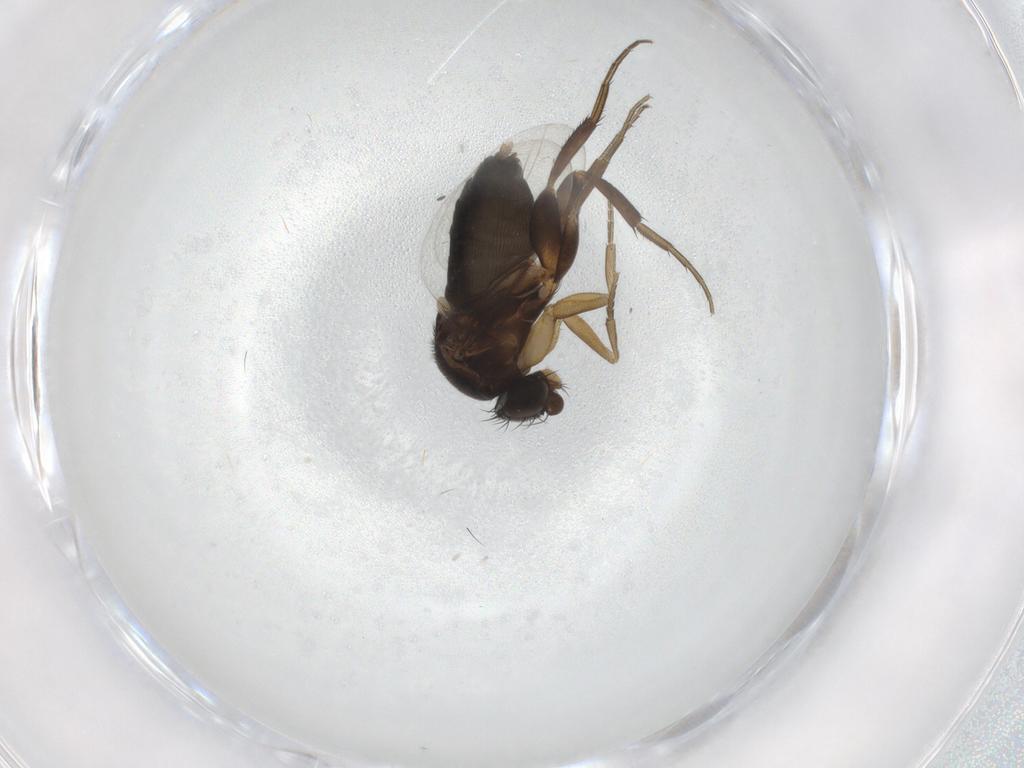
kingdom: Animalia
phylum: Arthropoda
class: Insecta
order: Diptera
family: Phoridae
